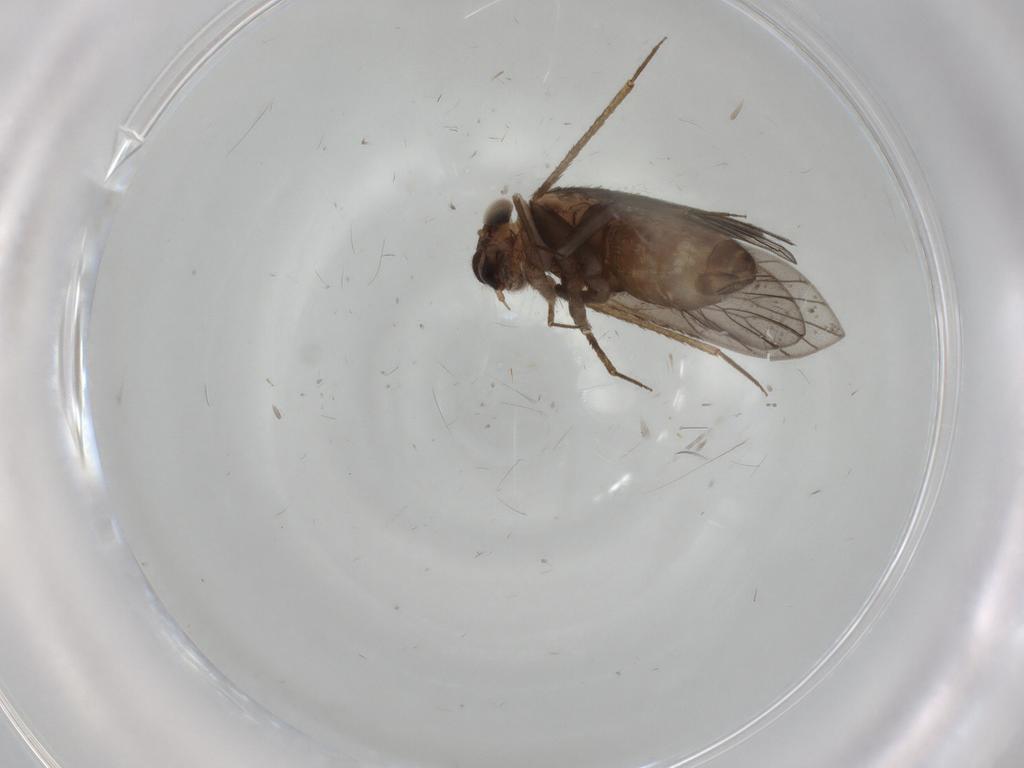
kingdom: Animalia
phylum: Arthropoda
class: Insecta
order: Psocodea
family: Lepidopsocidae
